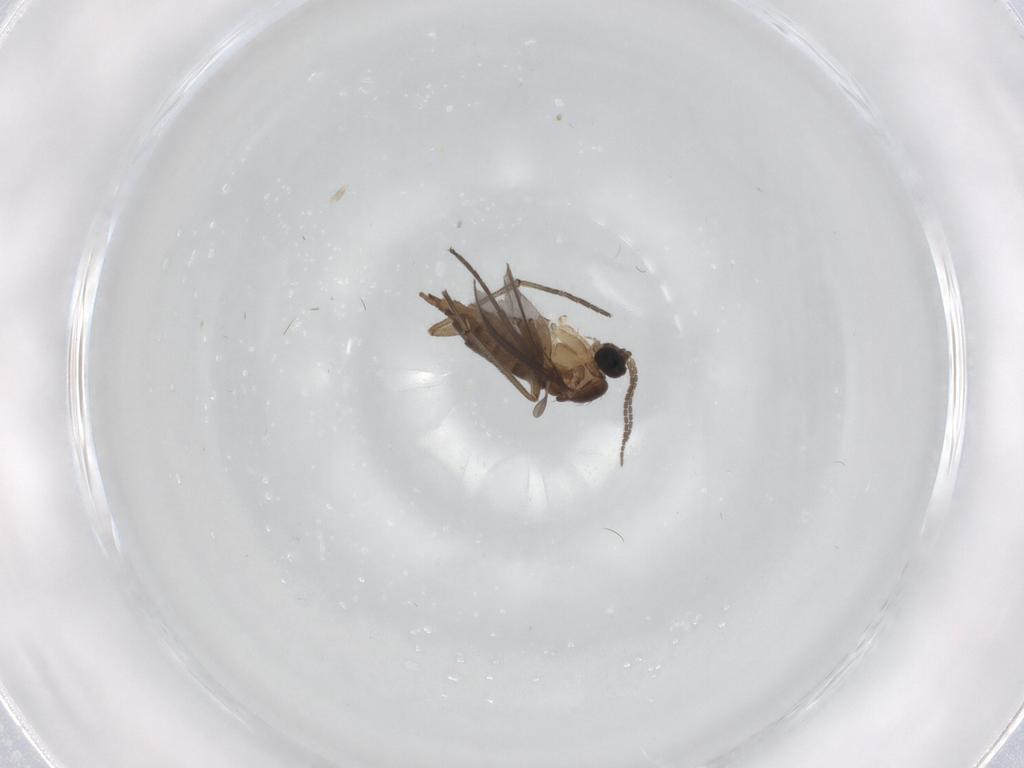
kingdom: Animalia
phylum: Arthropoda
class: Insecta
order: Diptera
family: Sciaridae
